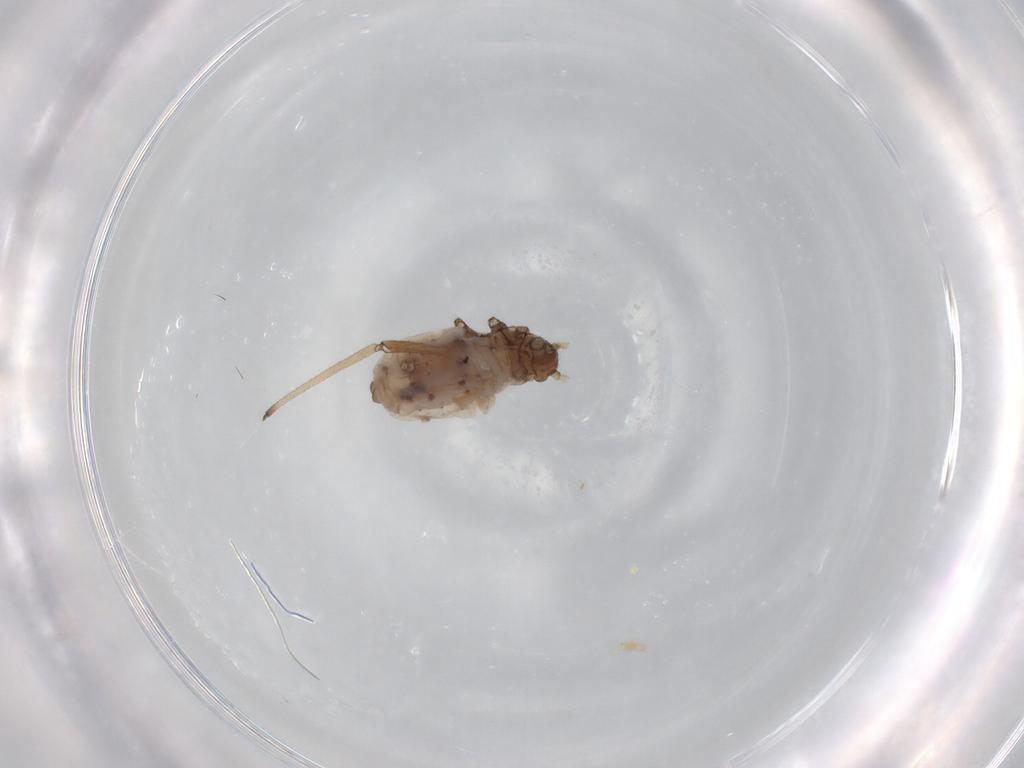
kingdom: Animalia
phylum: Arthropoda
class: Insecta
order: Hemiptera
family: Aphididae
